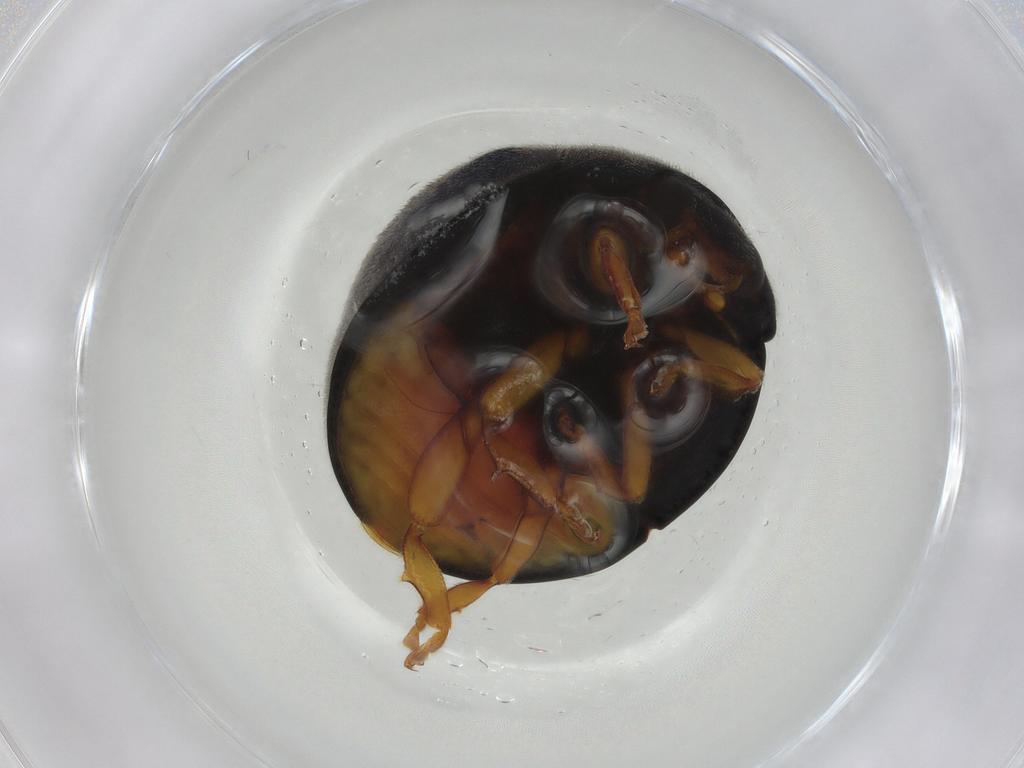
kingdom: Animalia
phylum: Arthropoda
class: Insecta
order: Coleoptera
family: Coccinellidae
